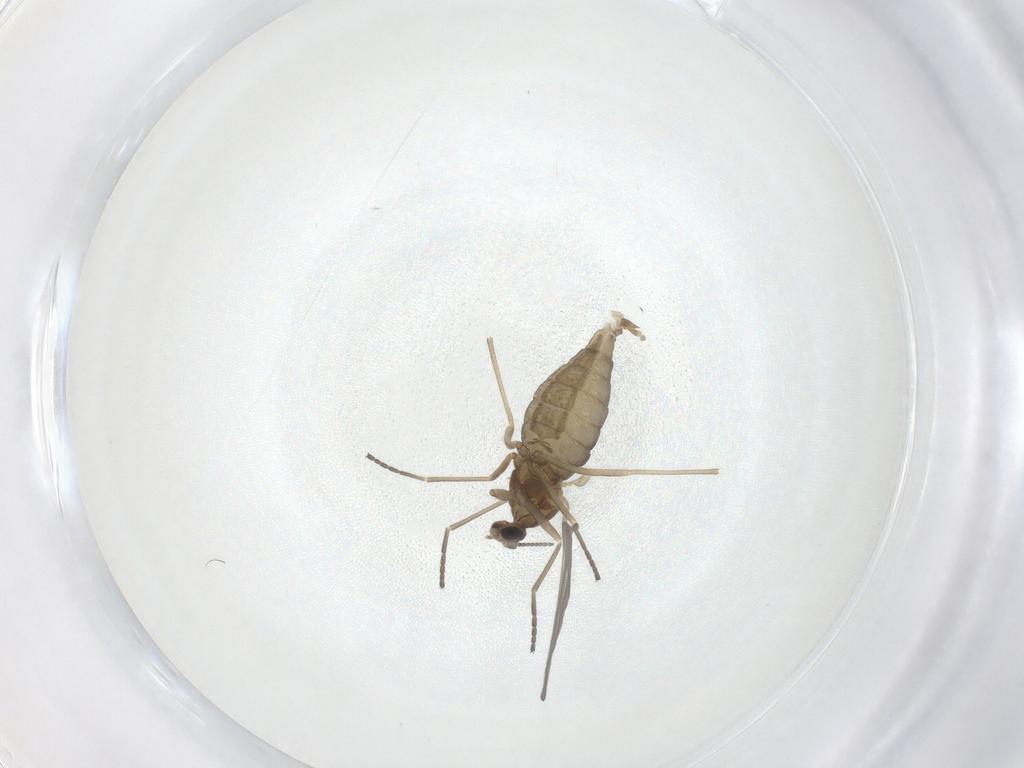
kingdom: Animalia
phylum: Arthropoda
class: Insecta
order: Diptera
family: Cecidomyiidae
